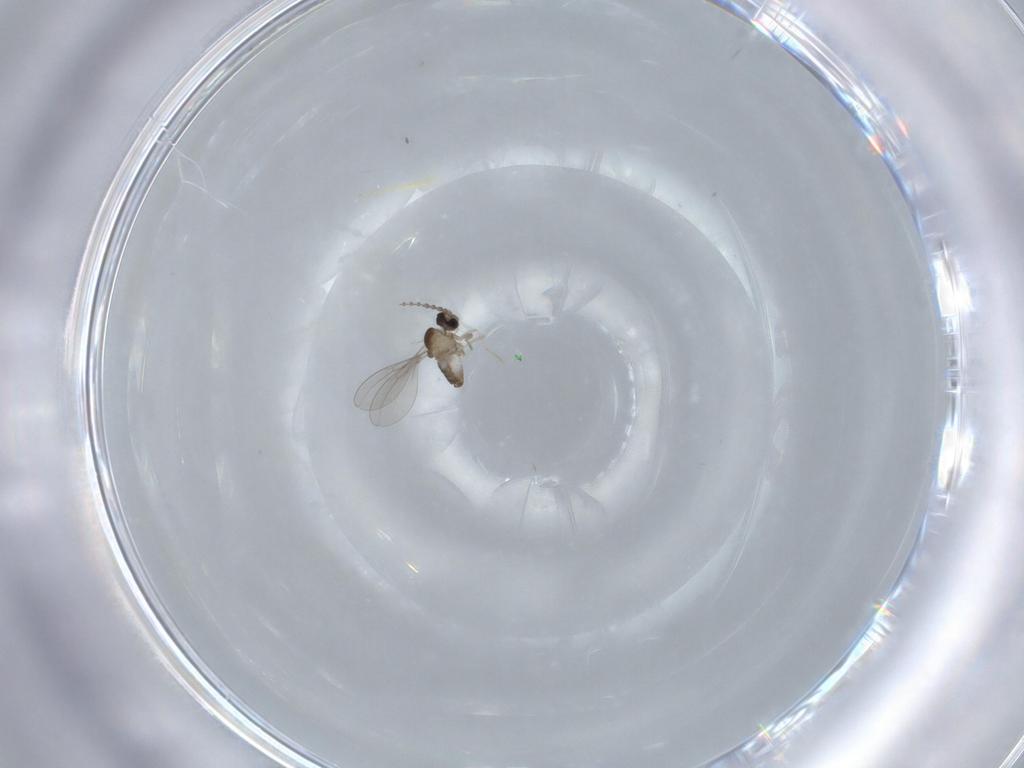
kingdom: Animalia
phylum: Arthropoda
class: Insecta
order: Diptera
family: Cecidomyiidae
